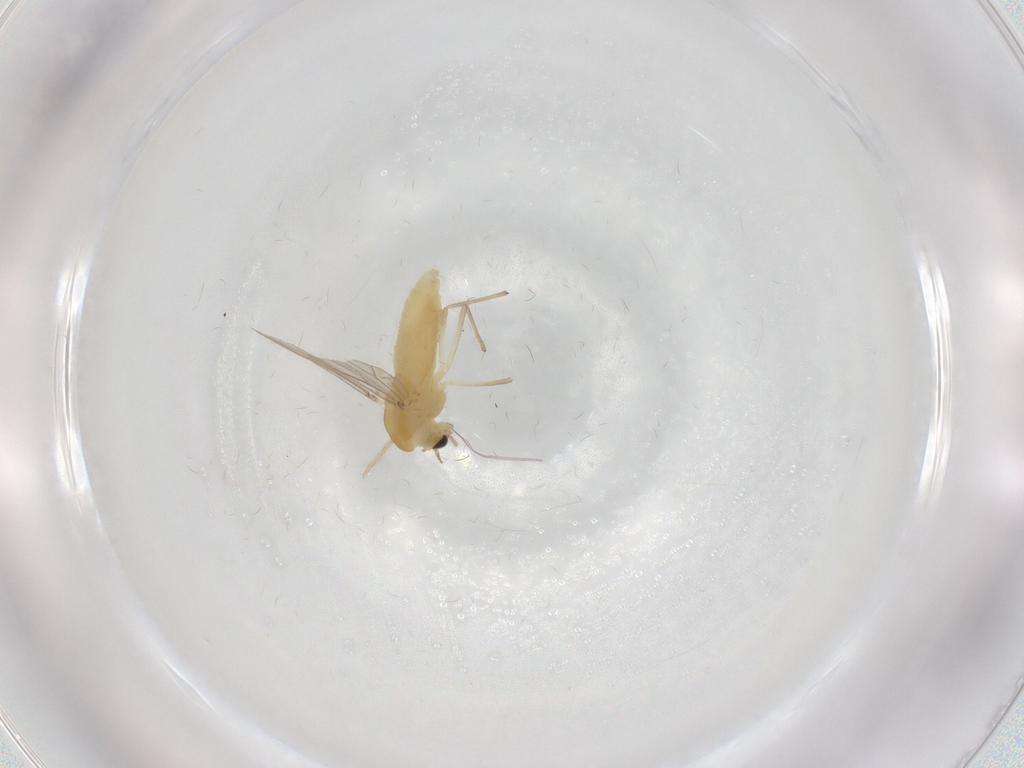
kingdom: Animalia
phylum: Arthropoda
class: Insecta
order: Diptera
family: Chironomidae
